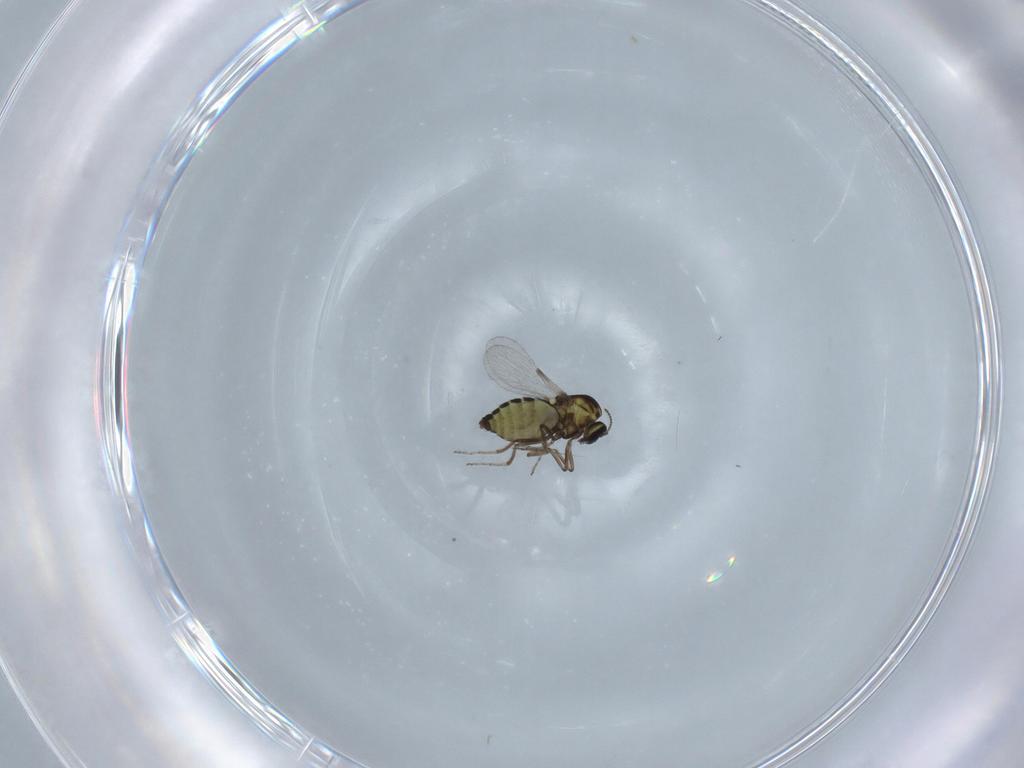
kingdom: Animalia
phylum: Arthropoda
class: Insecta
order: Diptera
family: Ceratopogonidae
